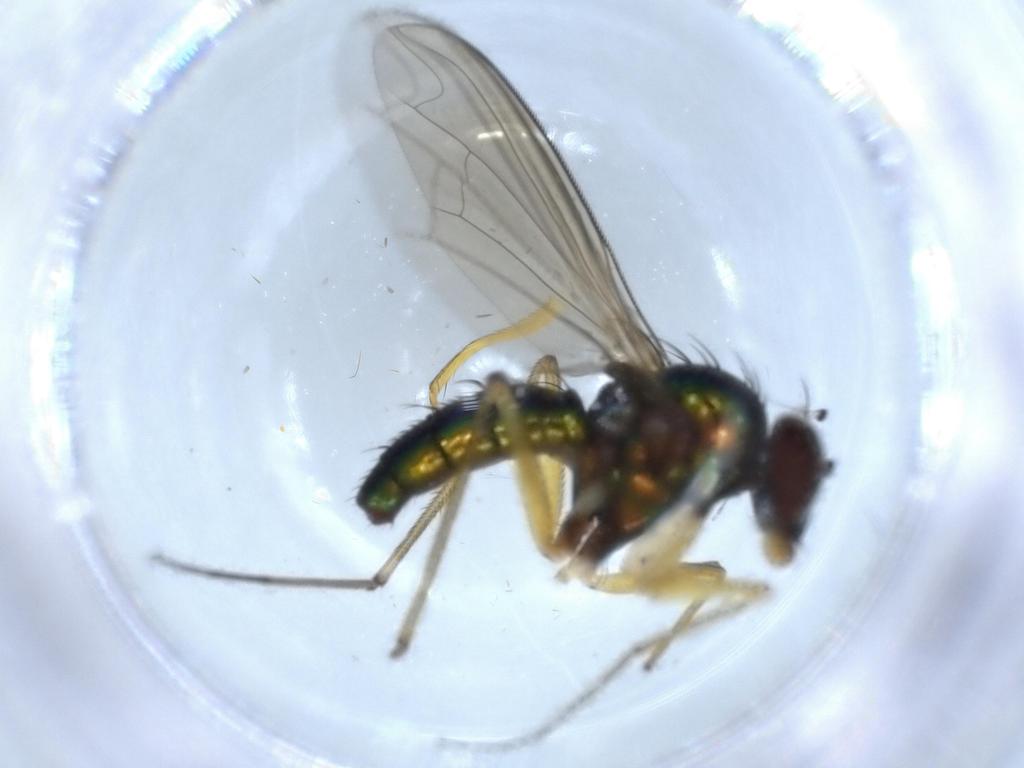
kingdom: Animalia
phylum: Arthropoda
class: Insecta
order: Diptera
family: Dolichopodidae
